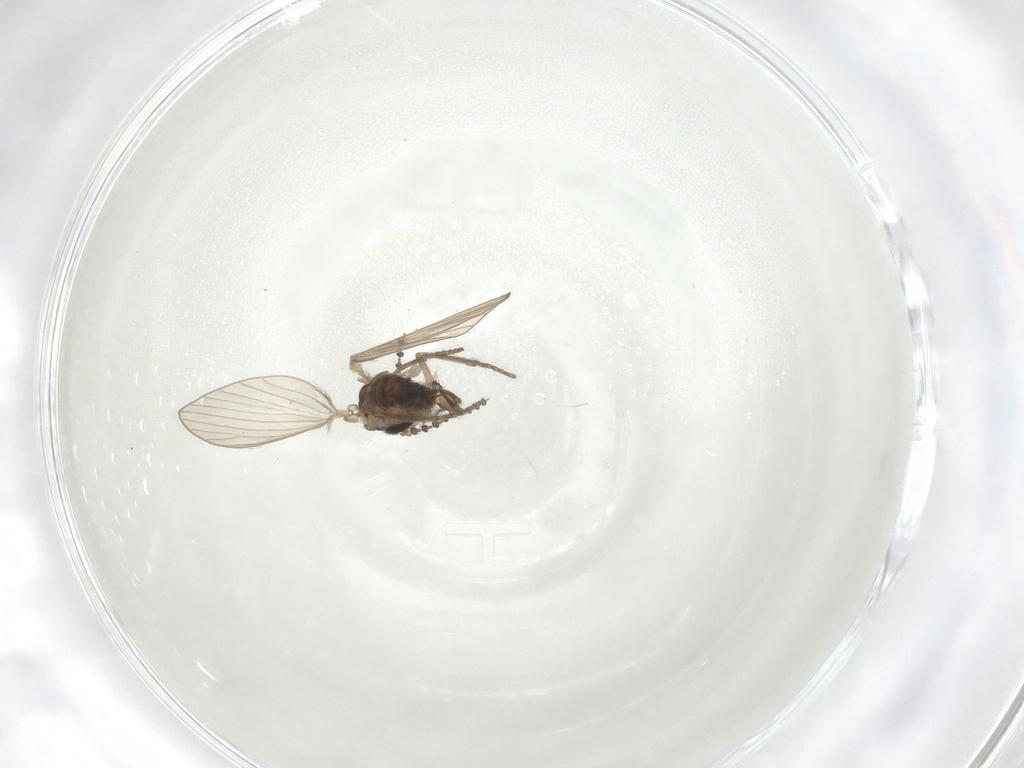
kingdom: Animalia
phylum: Arthropoda
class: Insecta
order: Diptera
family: Psychodidae
